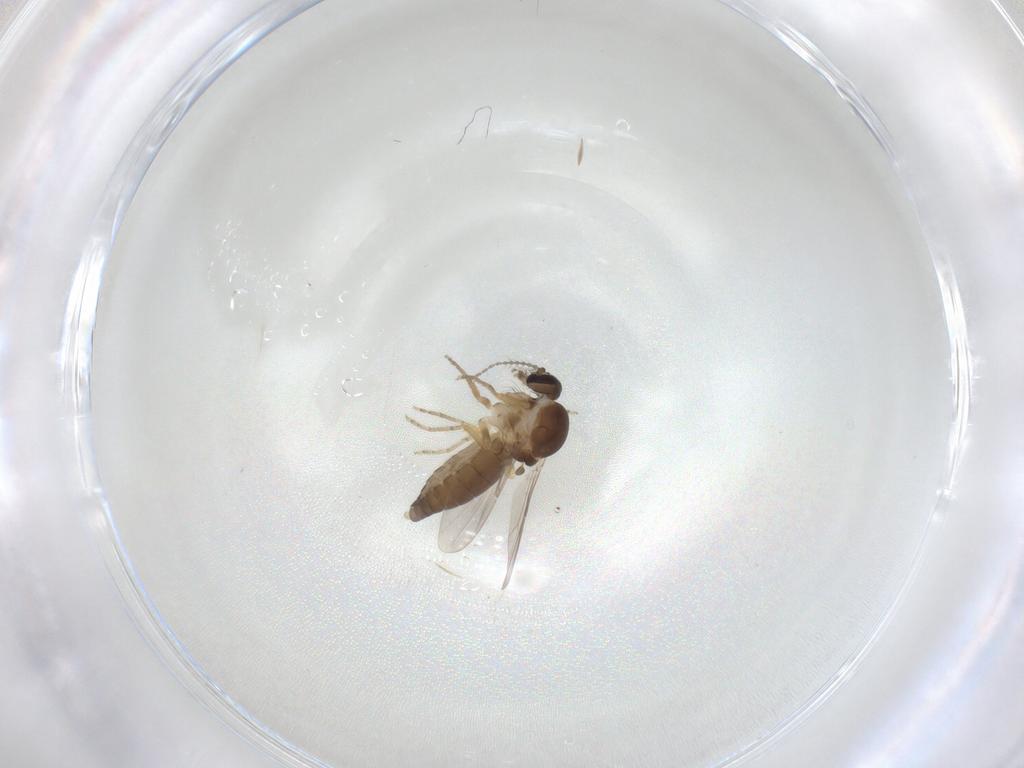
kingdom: Animalia
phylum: Arthropoda
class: Insecta
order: Diptera
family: Ceratopogonidae
